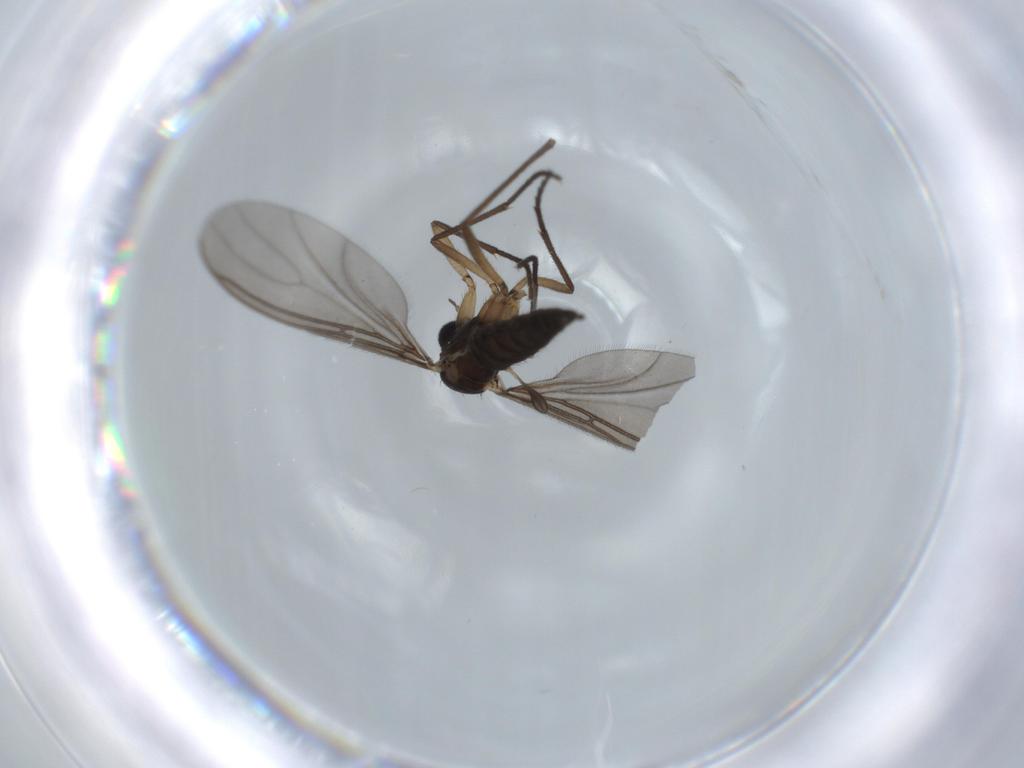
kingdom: Animalia
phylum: Arthropoda
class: Insecta
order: Diptera
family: Sciaridae
